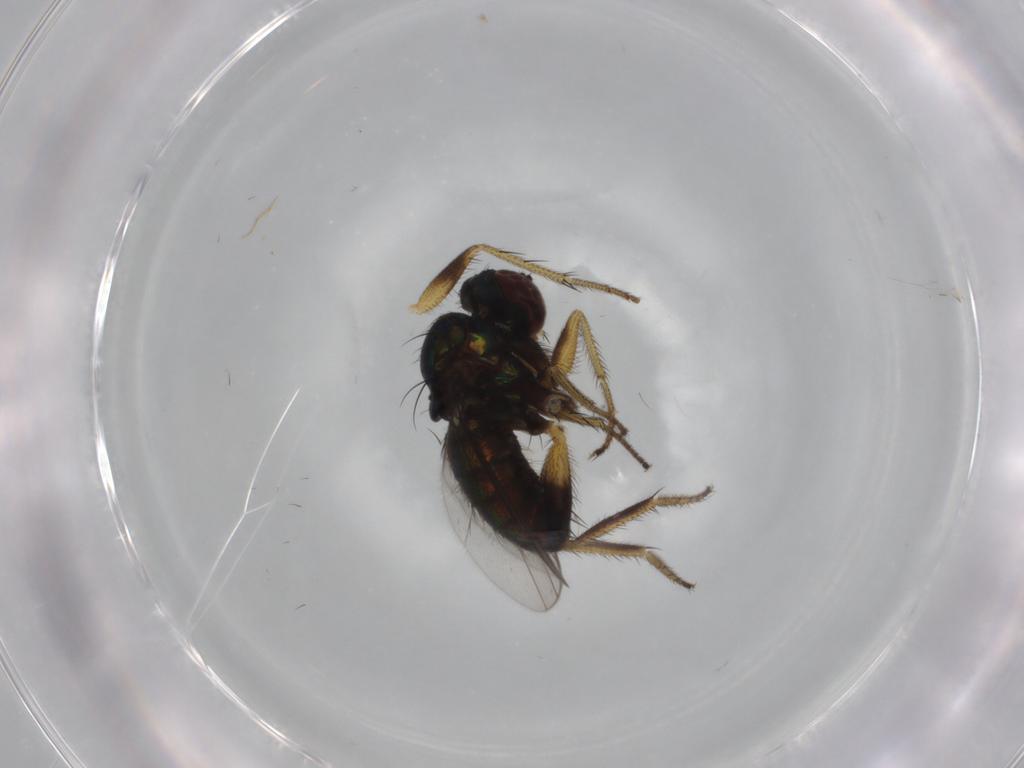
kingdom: Animalia
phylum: Arthropoda
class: Insecta
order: Diptera
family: Dolichopodidae
